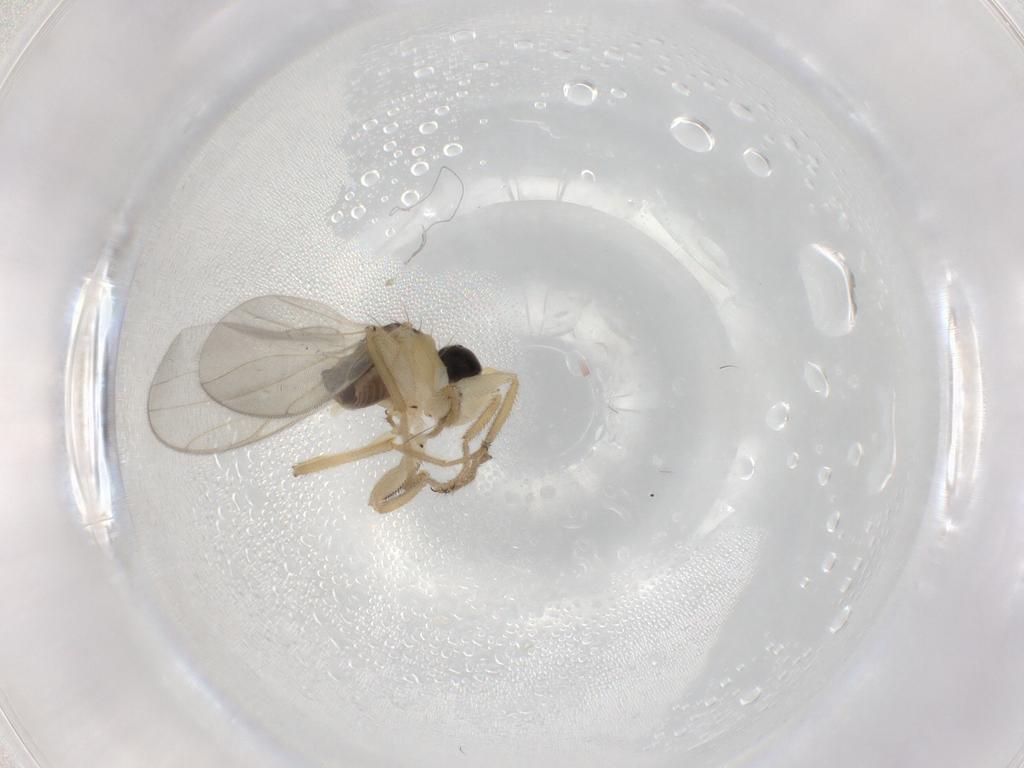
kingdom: Animalia
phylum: Arthropoda
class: Insecta
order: Diptera
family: Hybotidae
